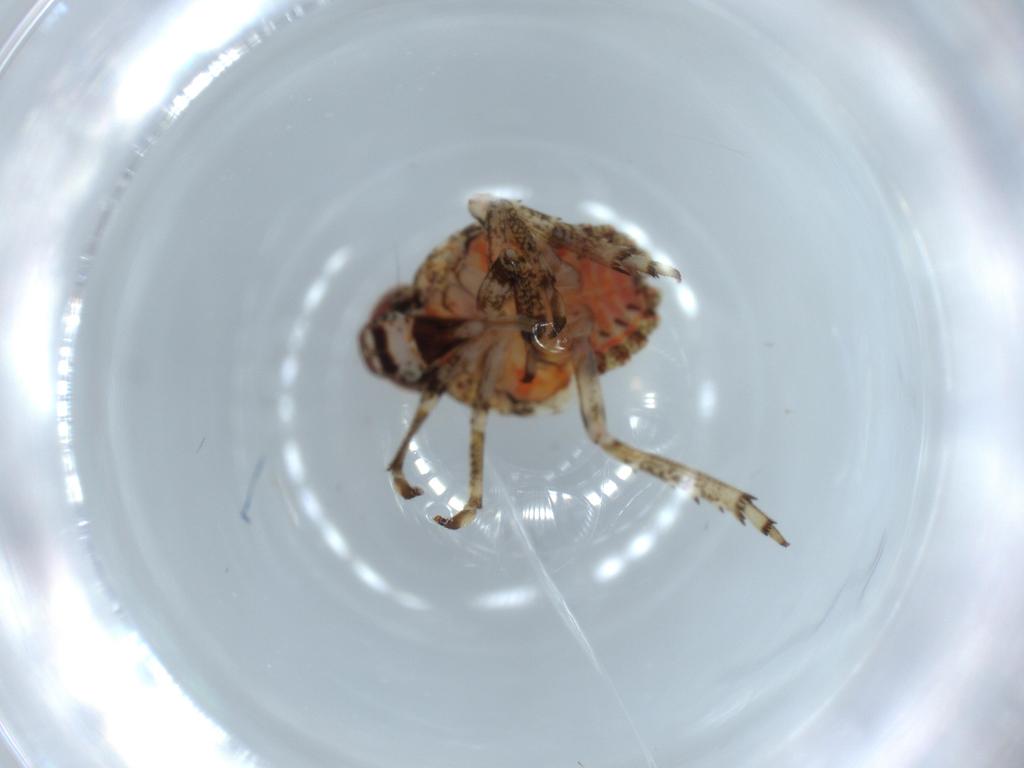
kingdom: Animalia
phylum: Arthropoda
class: Insecta
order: Hemiptera
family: Issidae
